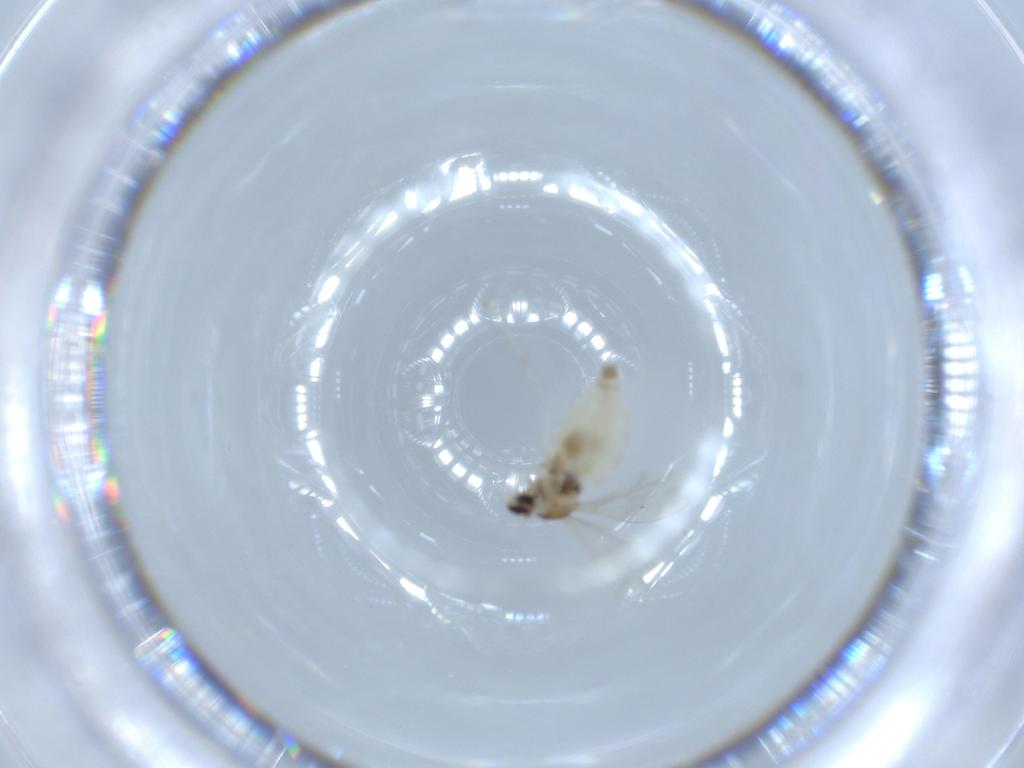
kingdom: Animalia
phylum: Arthropoda
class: Insecta
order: Diptera
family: Cecidomyiidae
